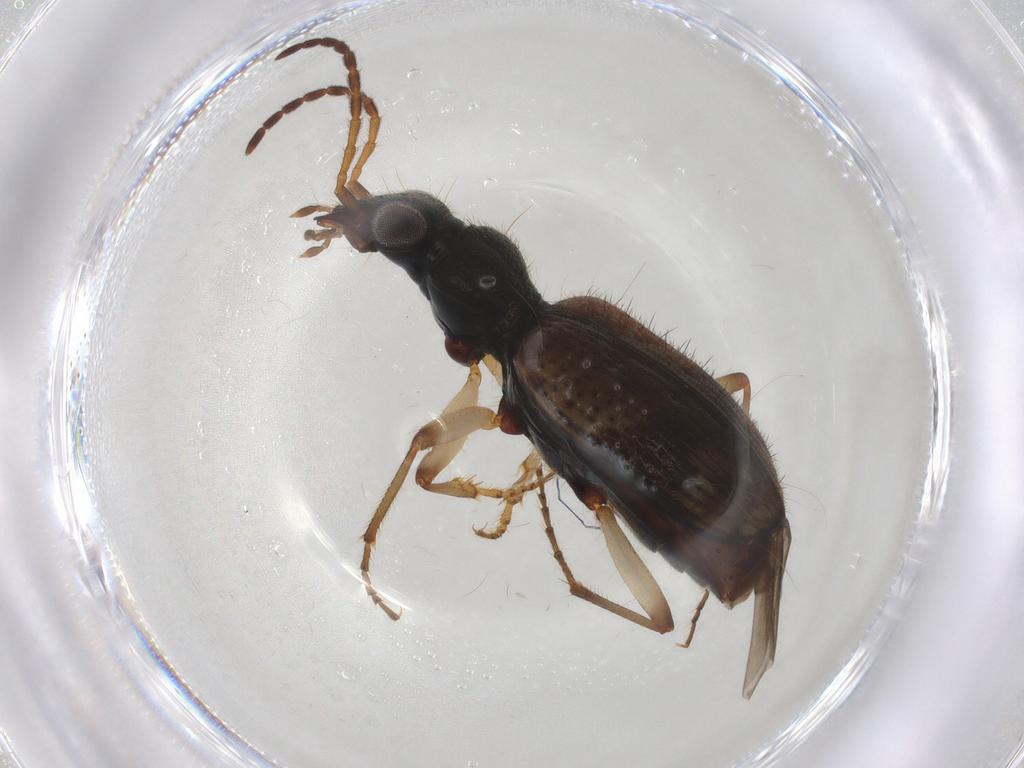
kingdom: Animalia
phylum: Arthropoda
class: Insecta
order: Coleoptera
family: Carabidae
